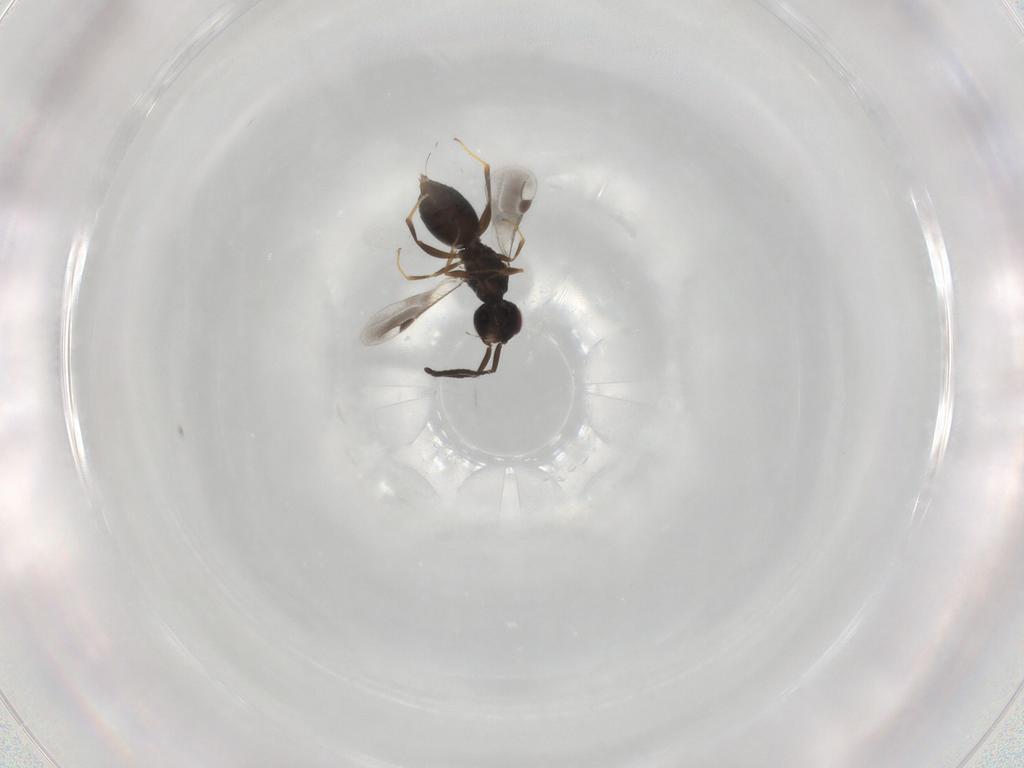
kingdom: Animalia
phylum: Arthropoda
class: Insecta
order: Hymenoptera
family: Megaspilidae
